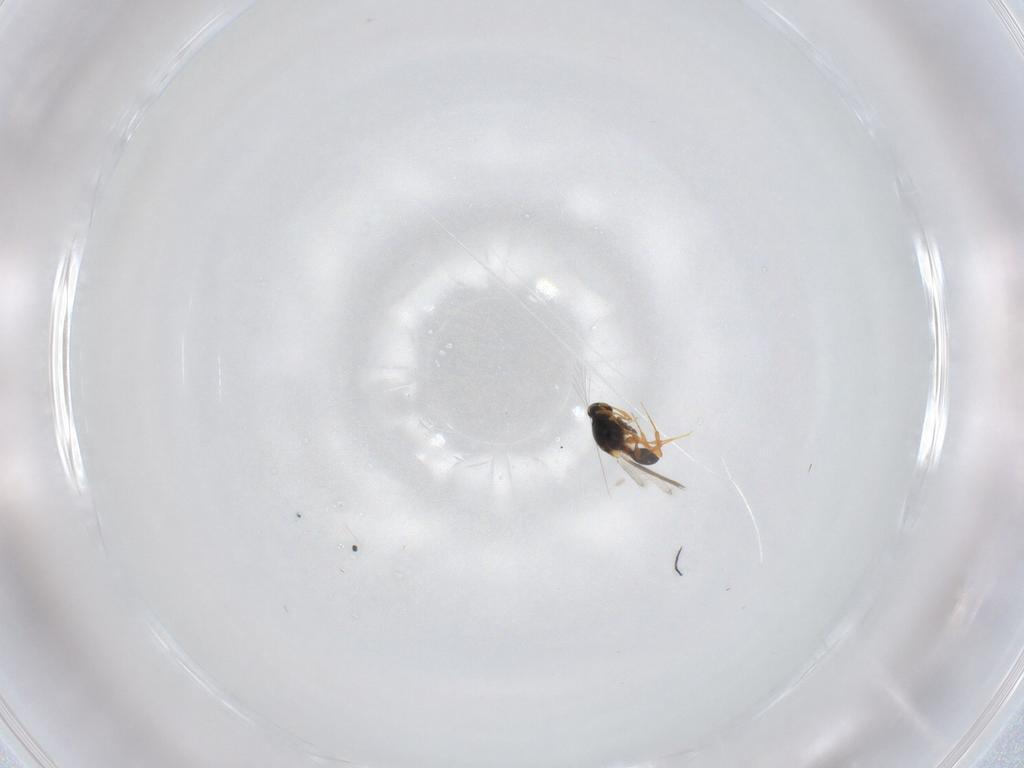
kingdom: Animalia
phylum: Arthropoda
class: Insecta
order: Hymenoptera
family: Platygastridae
